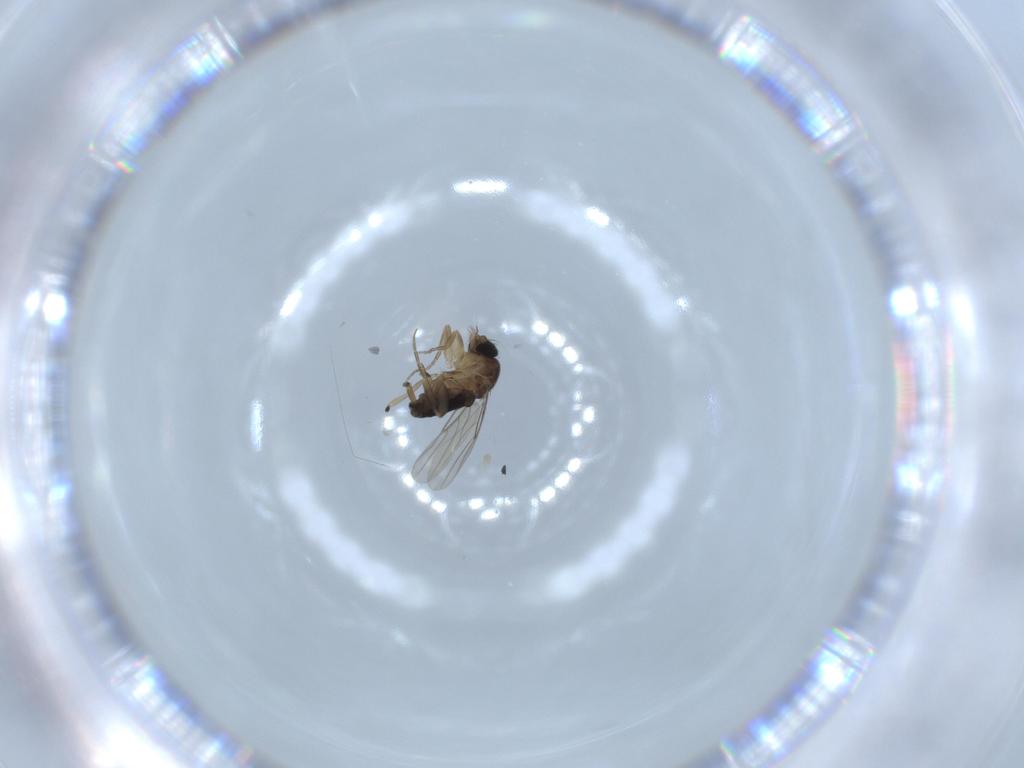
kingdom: Animalia
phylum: Arthropoda
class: Insecta
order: Diptera
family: Phoridae
